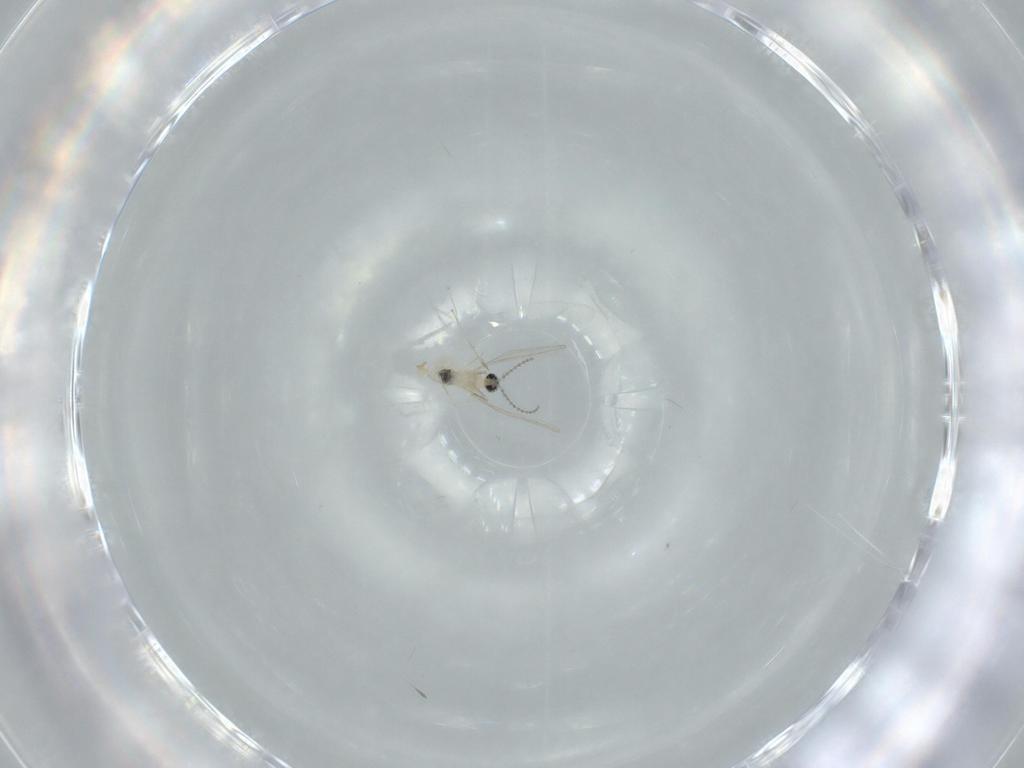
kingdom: Animalia
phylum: Arthropoda
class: Insecta
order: Diptera
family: Cecidomyiidae
